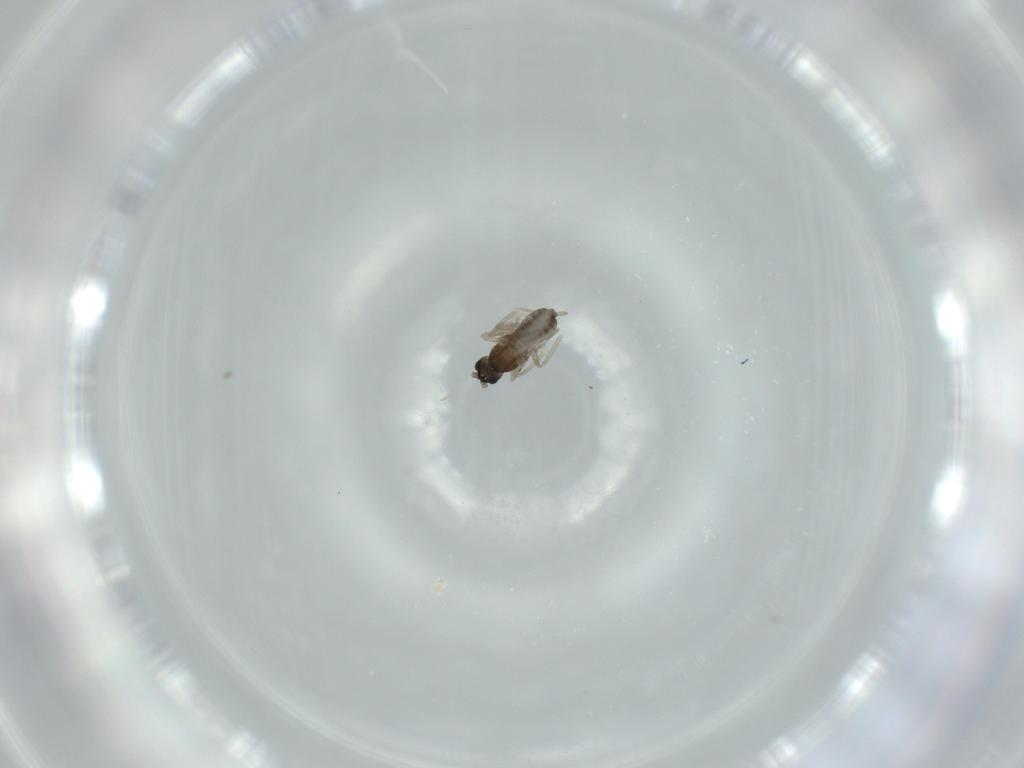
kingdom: Animalia
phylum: Arthropoda
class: Insecta
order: Diptera
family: Cecidomyiidae
